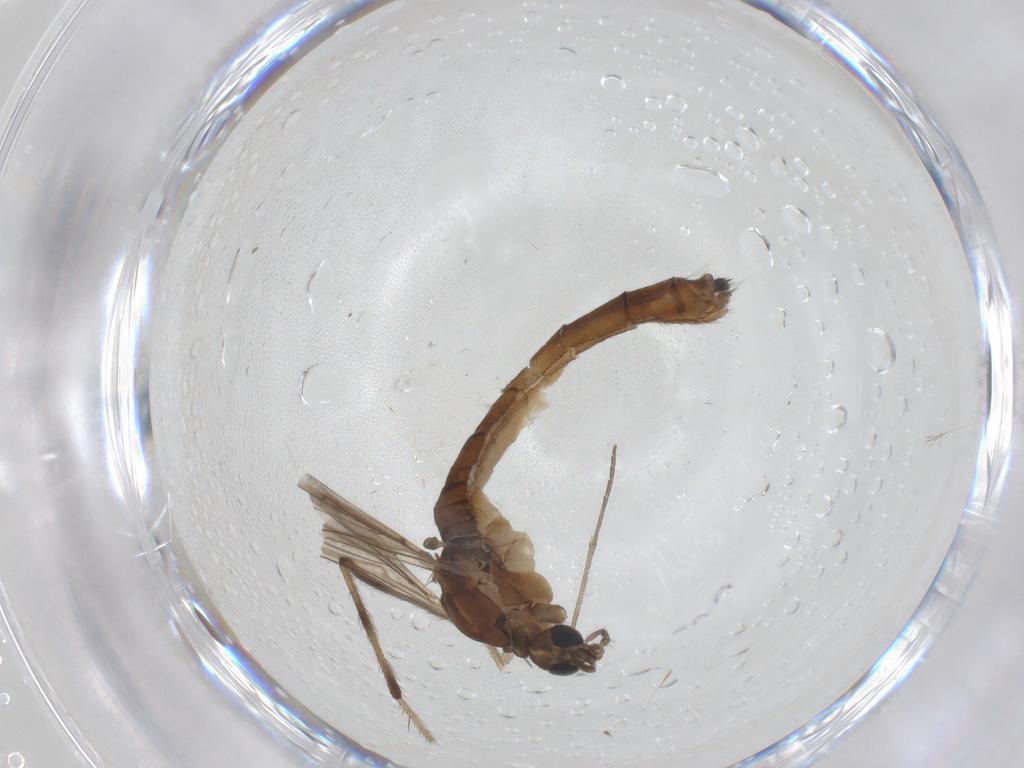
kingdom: Animalia
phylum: Arthropoda
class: Insecta
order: Diptera
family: Limoniidae
